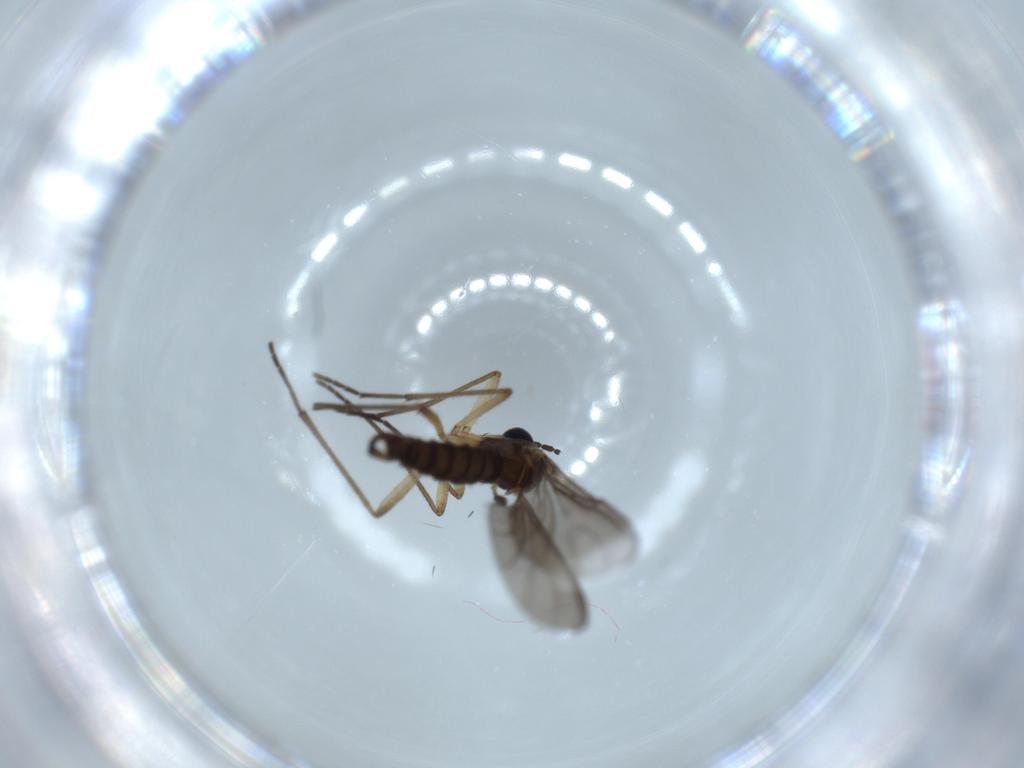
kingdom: Animalia
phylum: Arthropoda
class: Insecta
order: Diptera
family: Sciaridae
